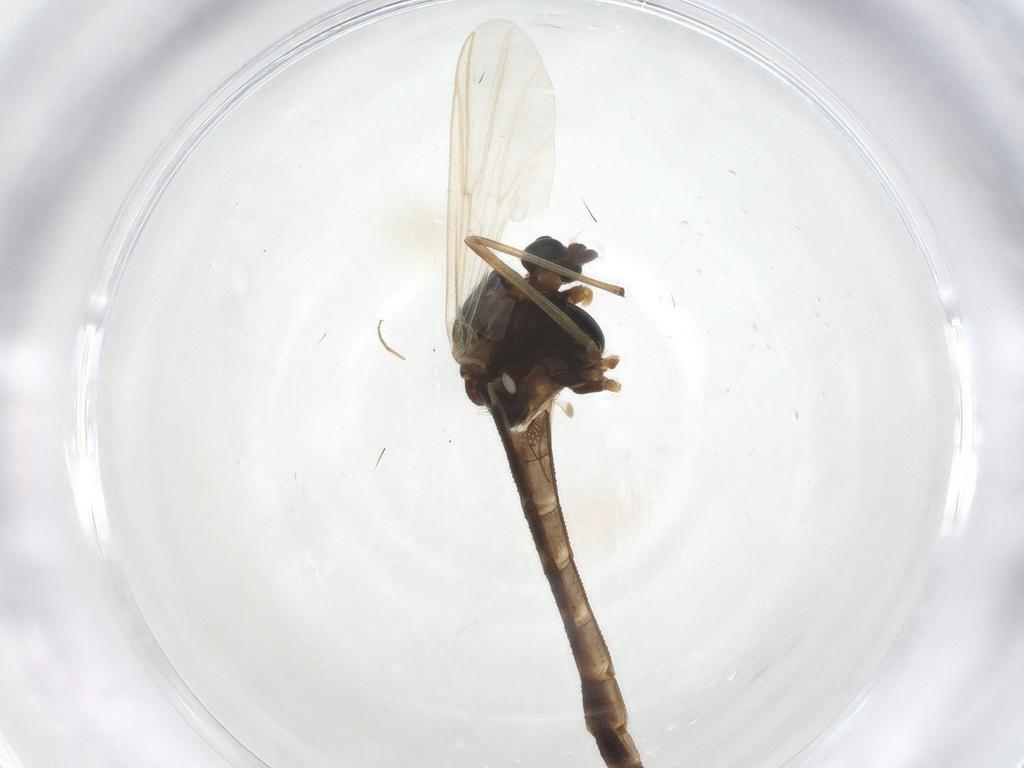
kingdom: Animalia
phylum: Arthropoda
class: Insecta
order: Diptera
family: Chironomidae
